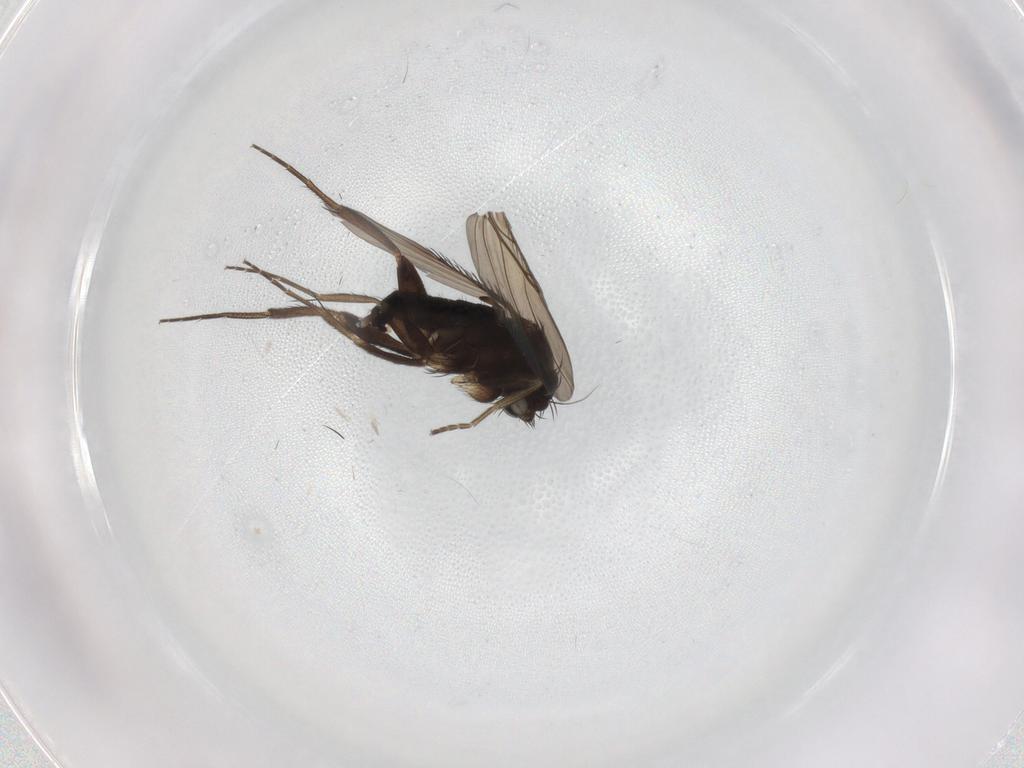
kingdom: Animalia
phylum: Arthropoda
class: Insecta
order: Diptera
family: Phoridae
